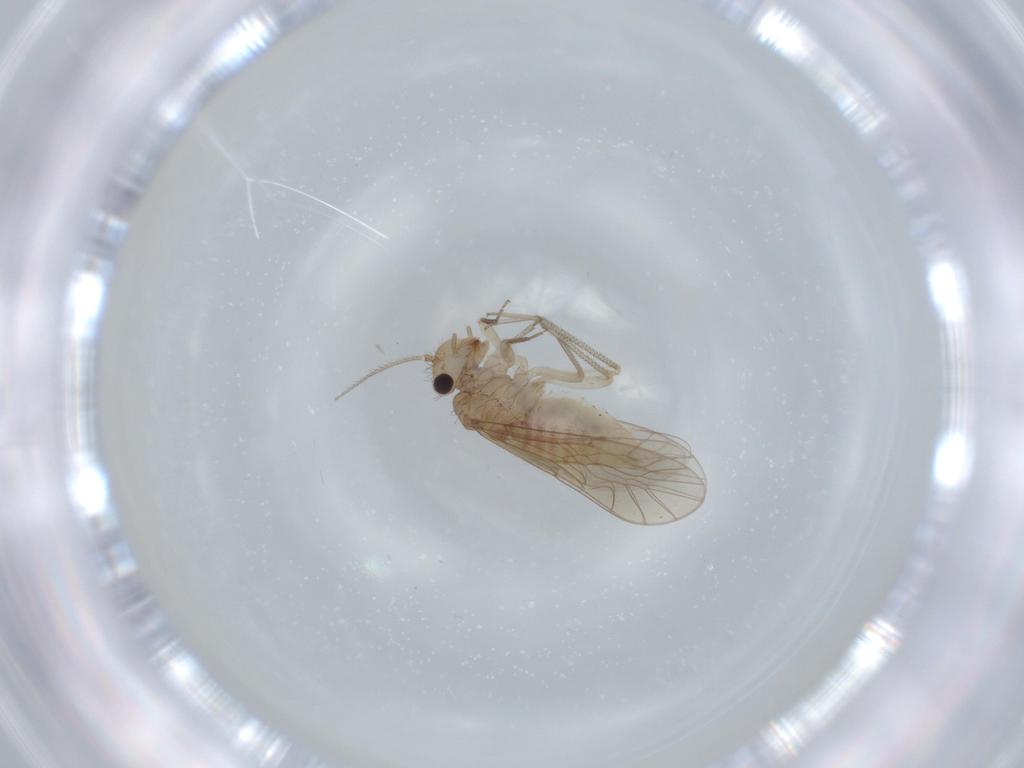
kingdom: Animalia
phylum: Arthropoda
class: Insecta
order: Psocodea
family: Caeciliusidae
